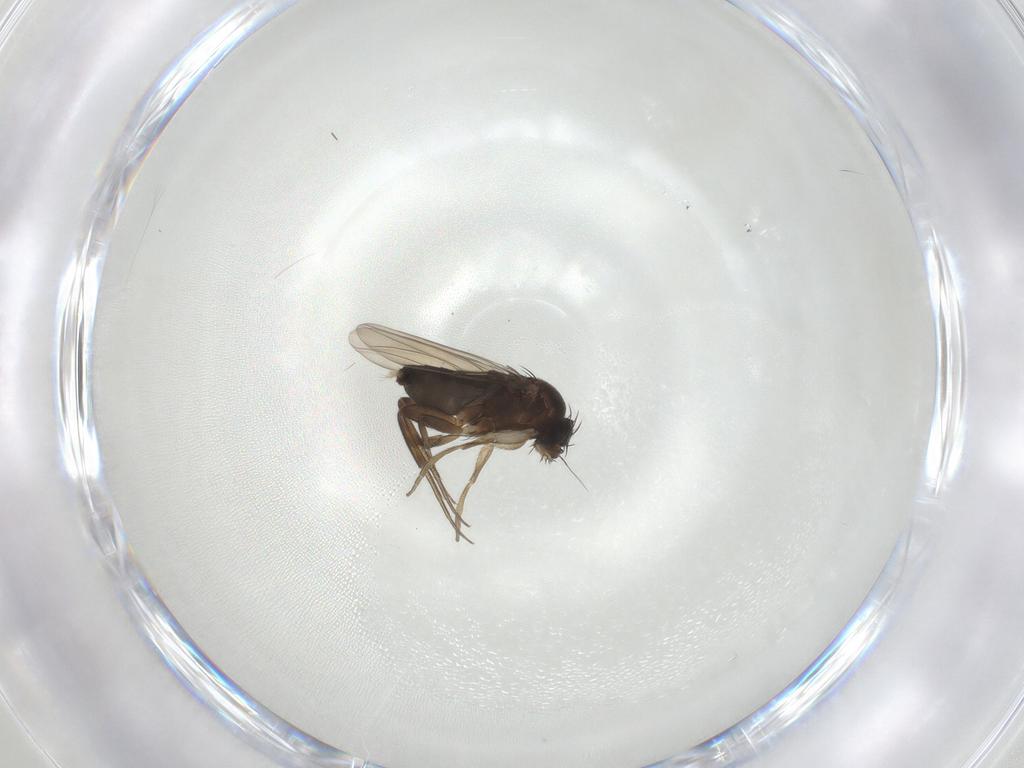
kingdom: Animalia
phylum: Arthropoda
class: Insecta
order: Diptera
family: Phoridae
